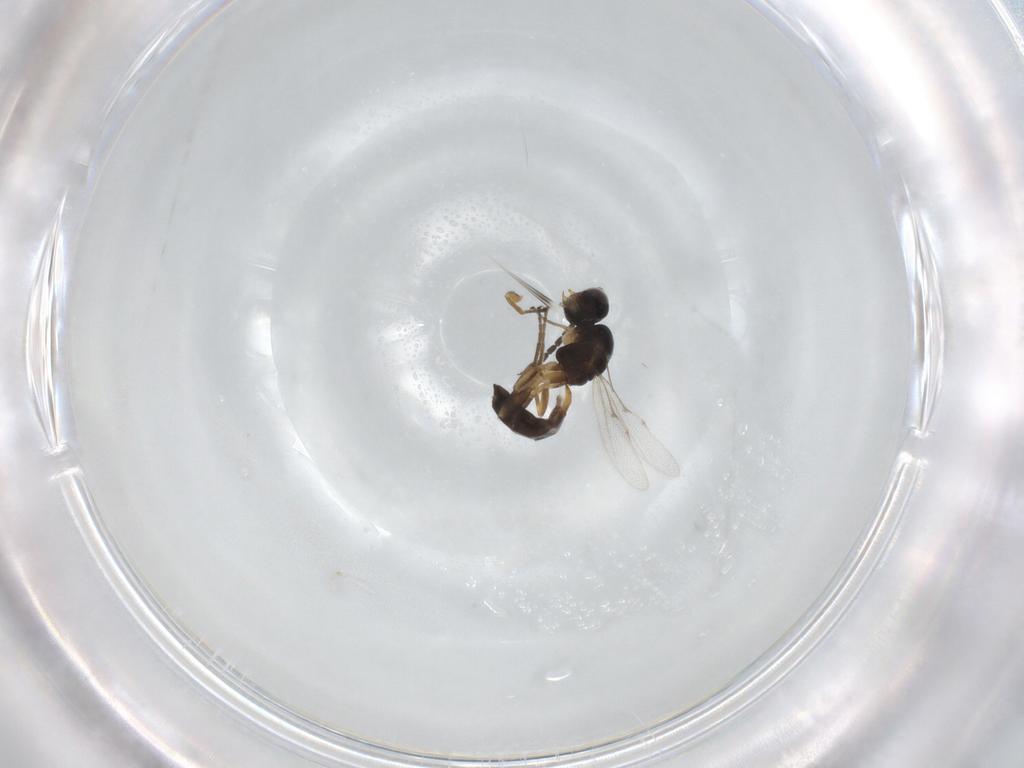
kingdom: Animalia
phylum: Arthropoda
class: Insecta
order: Hymenoptera
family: Braconidae
